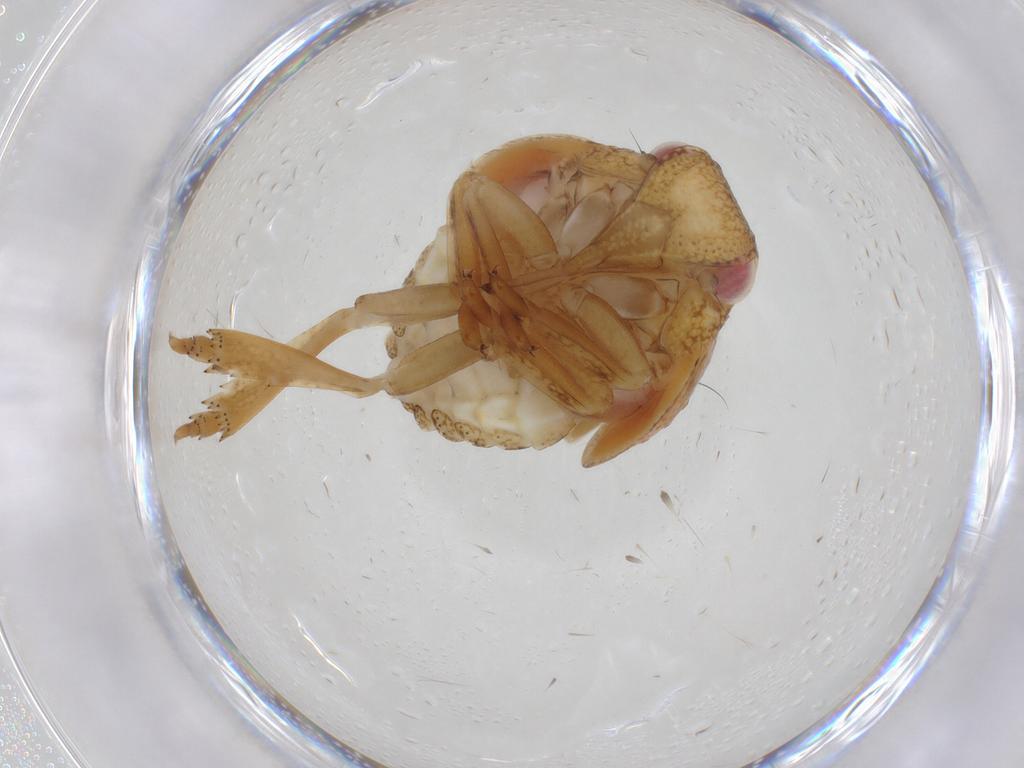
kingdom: Animalia
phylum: Arthropoda
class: Insecta
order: Hemiptera
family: Acanaloniidae
